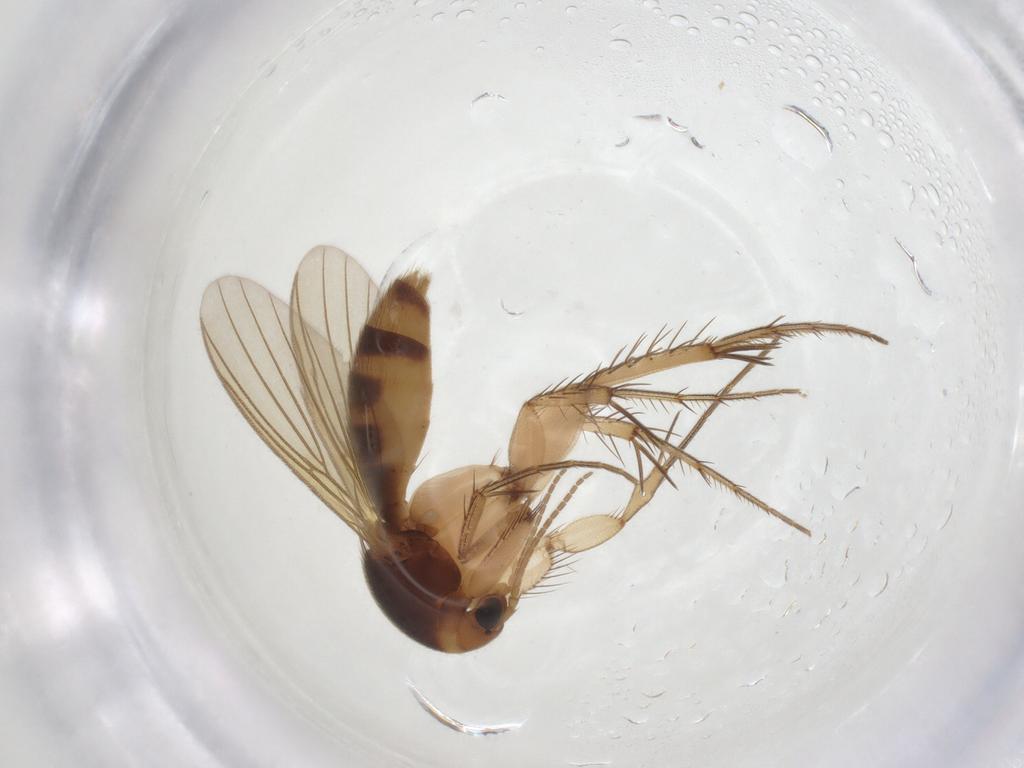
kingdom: Animalia
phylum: Arthropoda
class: Insecta
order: Diptera
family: Mycetophilidae
